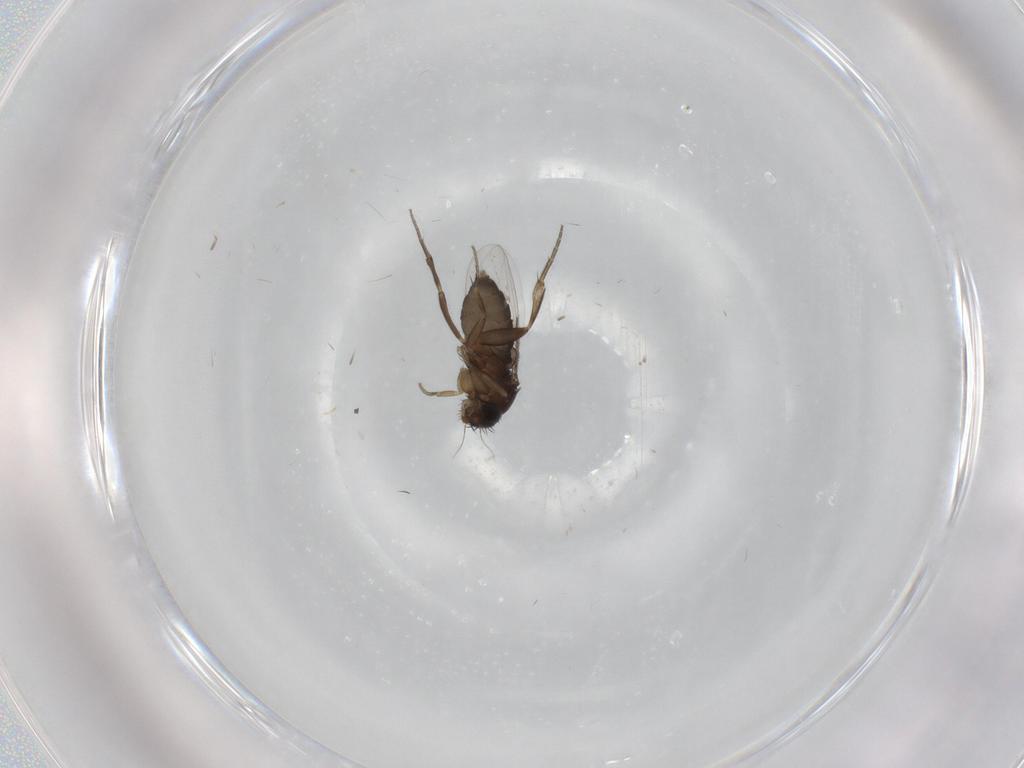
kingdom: Animalia
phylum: Arthropoda
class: Insecta
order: Diptera
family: Phoridae
